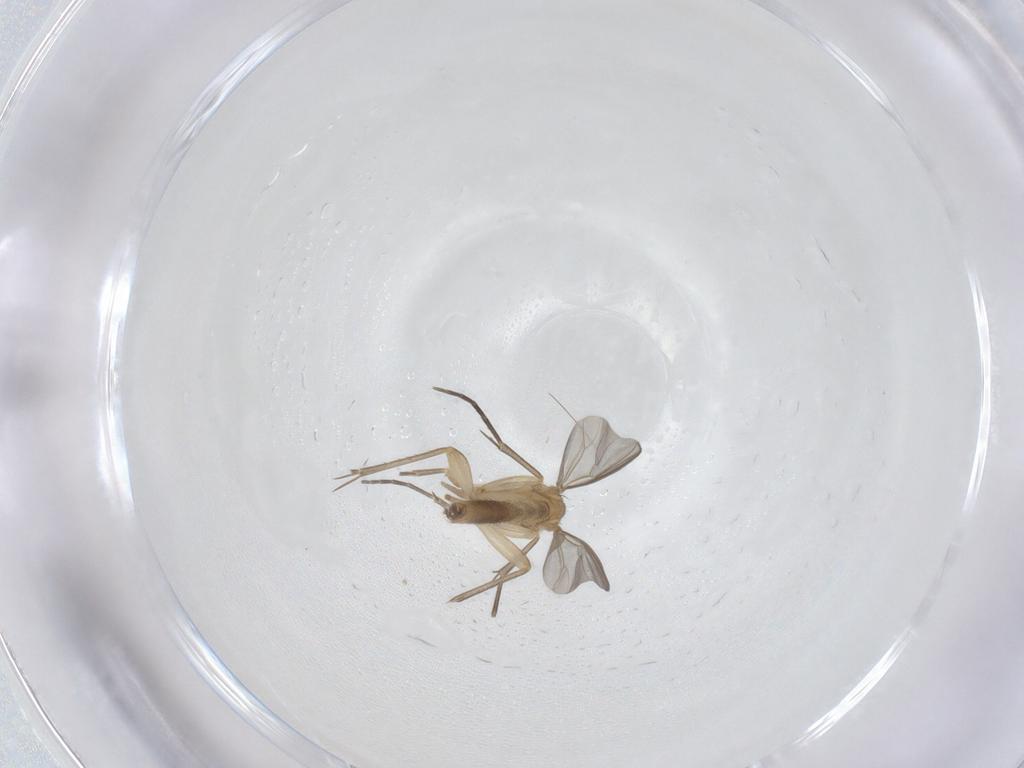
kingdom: Animalia
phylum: Arthropoda
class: Insecta
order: Diptera
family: Mycetophilidae
